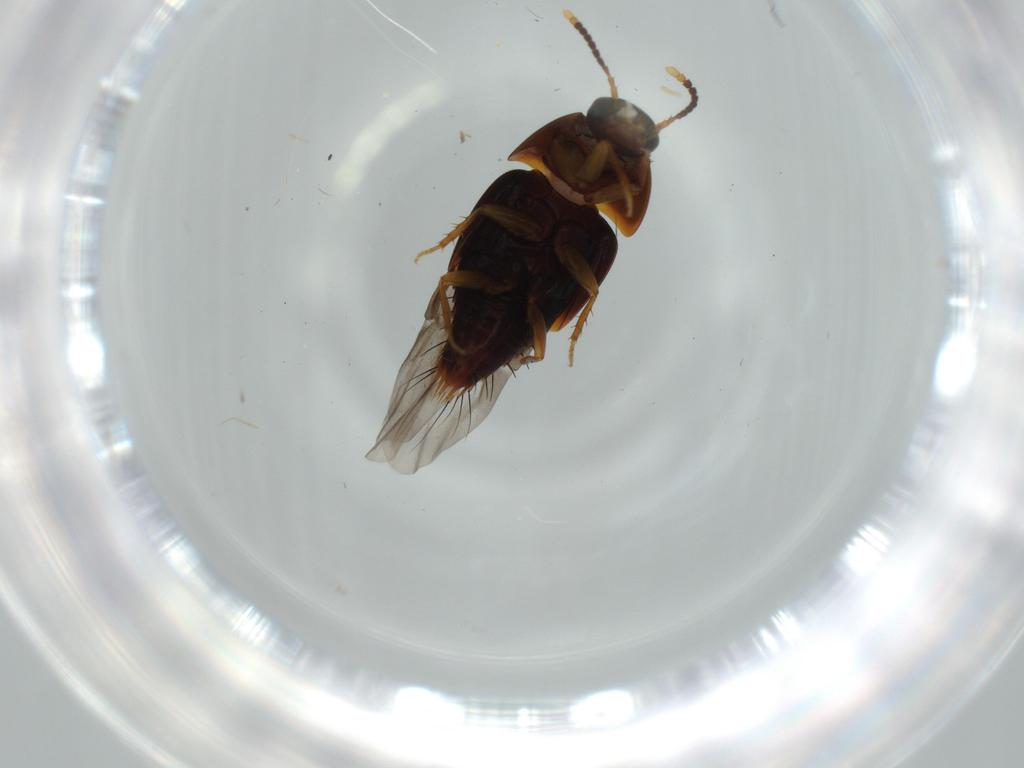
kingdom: Animalia
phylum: Arthropoda
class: Insecta
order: Coleoptera
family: Staphylinidae
